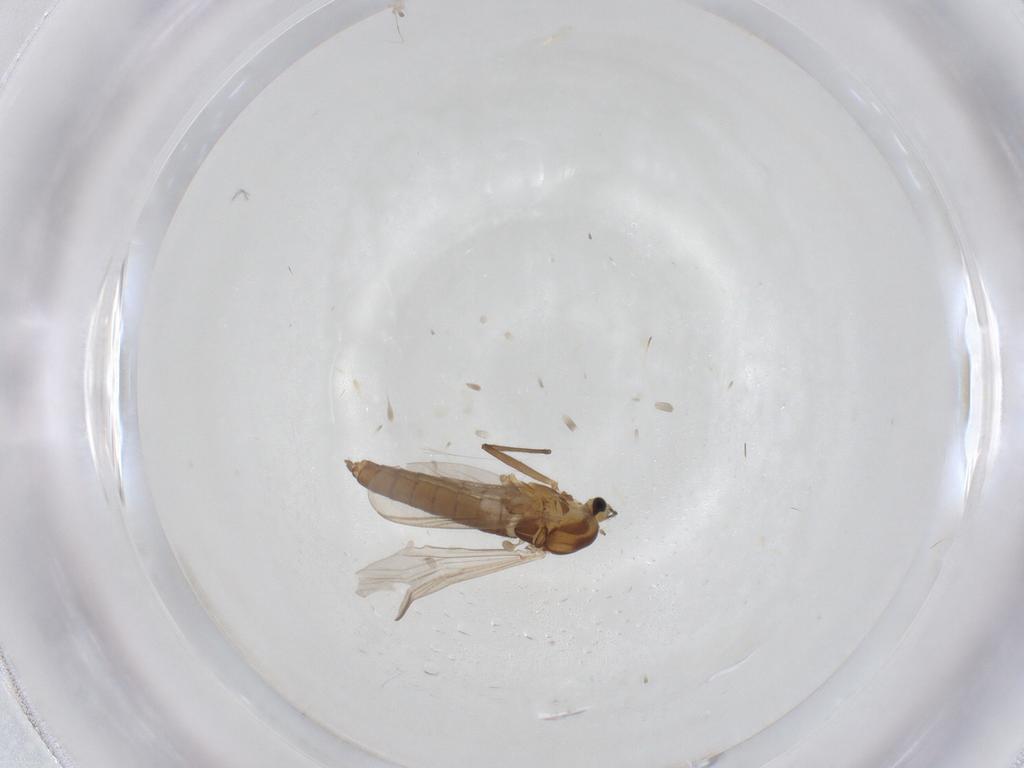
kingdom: Animalia
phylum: Arthropoda
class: Insecta
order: Diptera
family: Chironomidae
